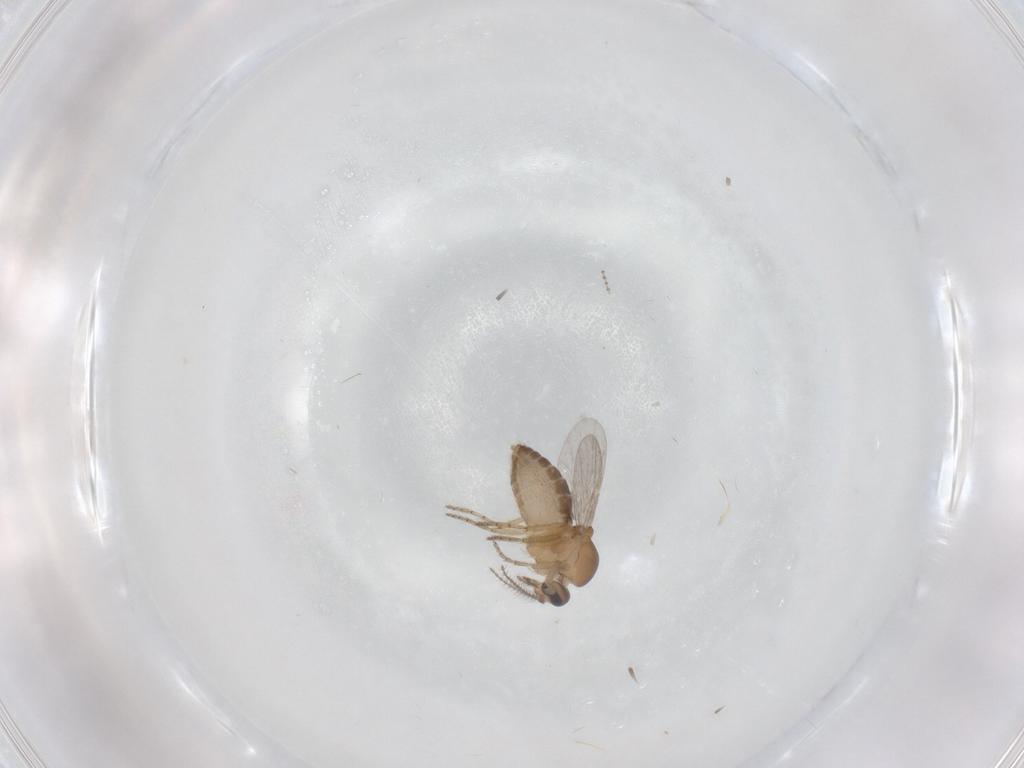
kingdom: Animalia
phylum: Arthropoda
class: Insecta
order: Diptera
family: Ceratopogonidae
